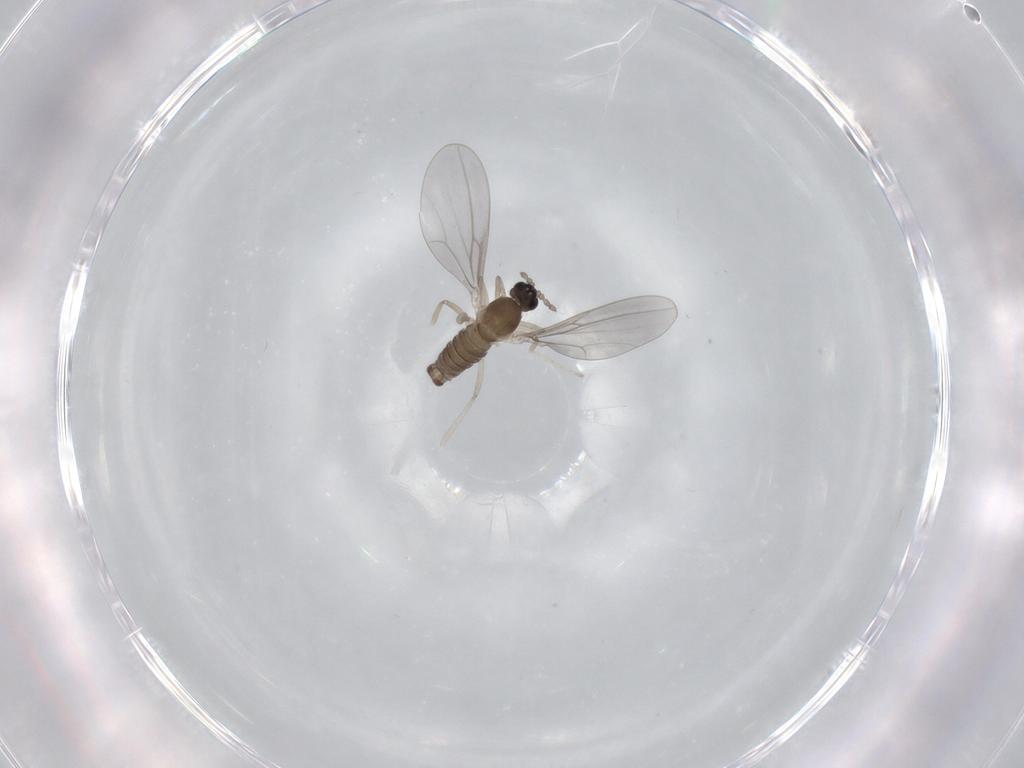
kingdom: Animalia
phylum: Arthropoda
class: Insecta
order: Diptera
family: Cecidomyiidae
